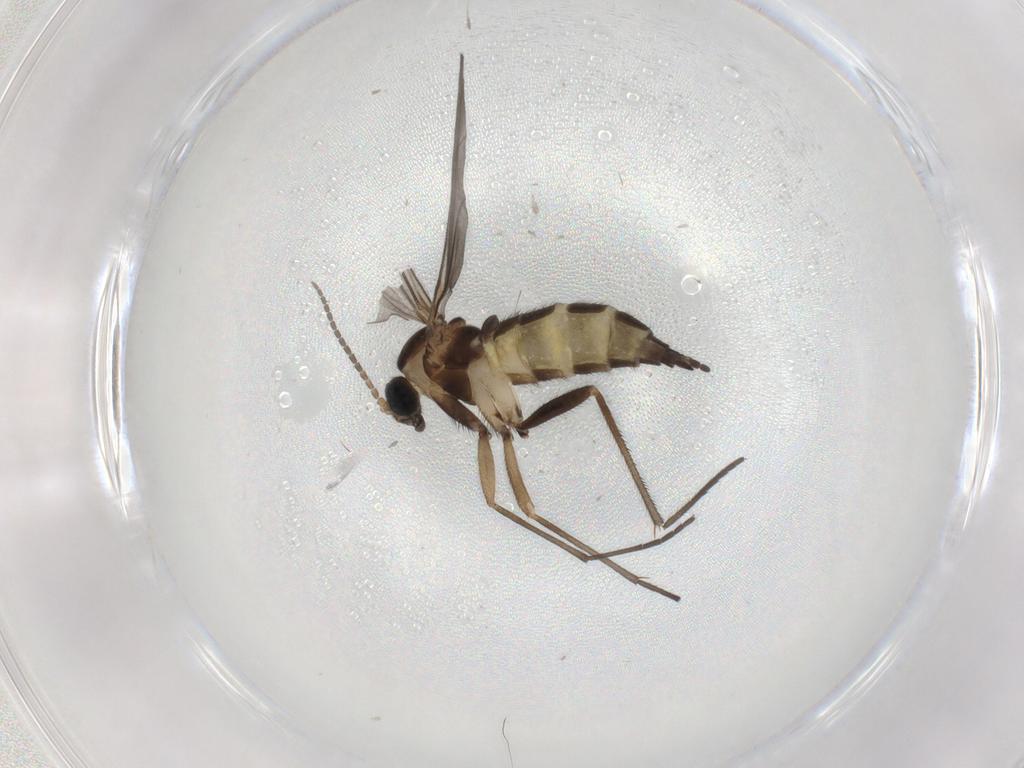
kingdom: Animalia
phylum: Arthropoda
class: Insecta
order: Diptera
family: Sciaridae
